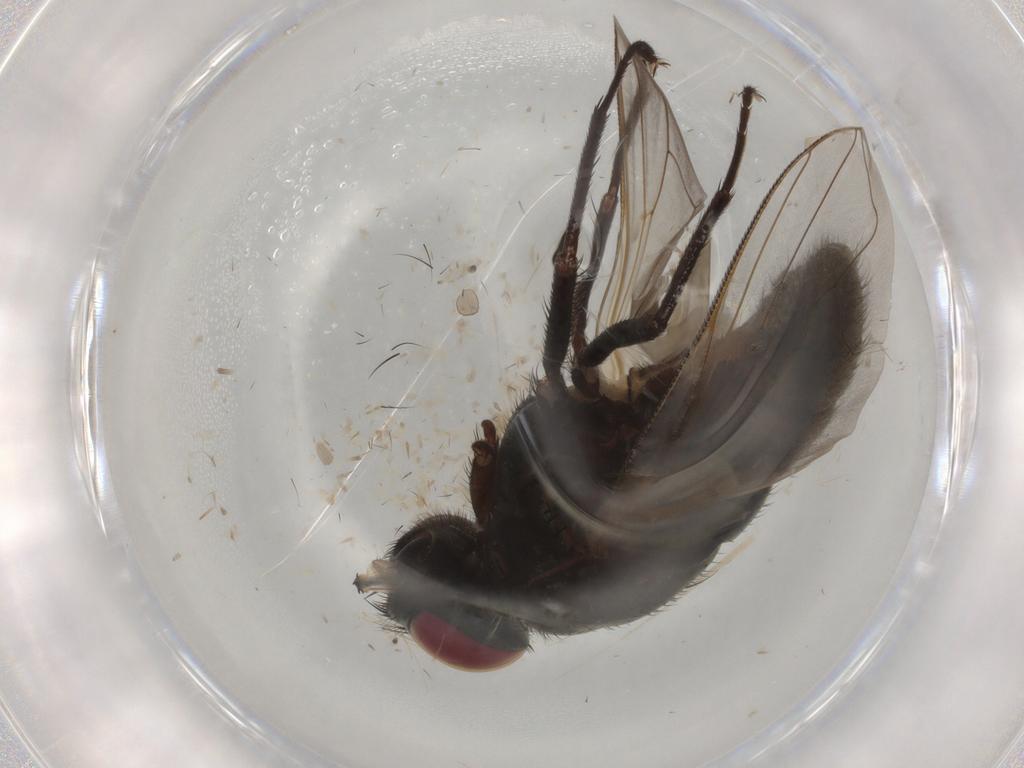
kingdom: Animalia
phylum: Arthropoda
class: Insecta
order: Diptera
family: Muscidae
